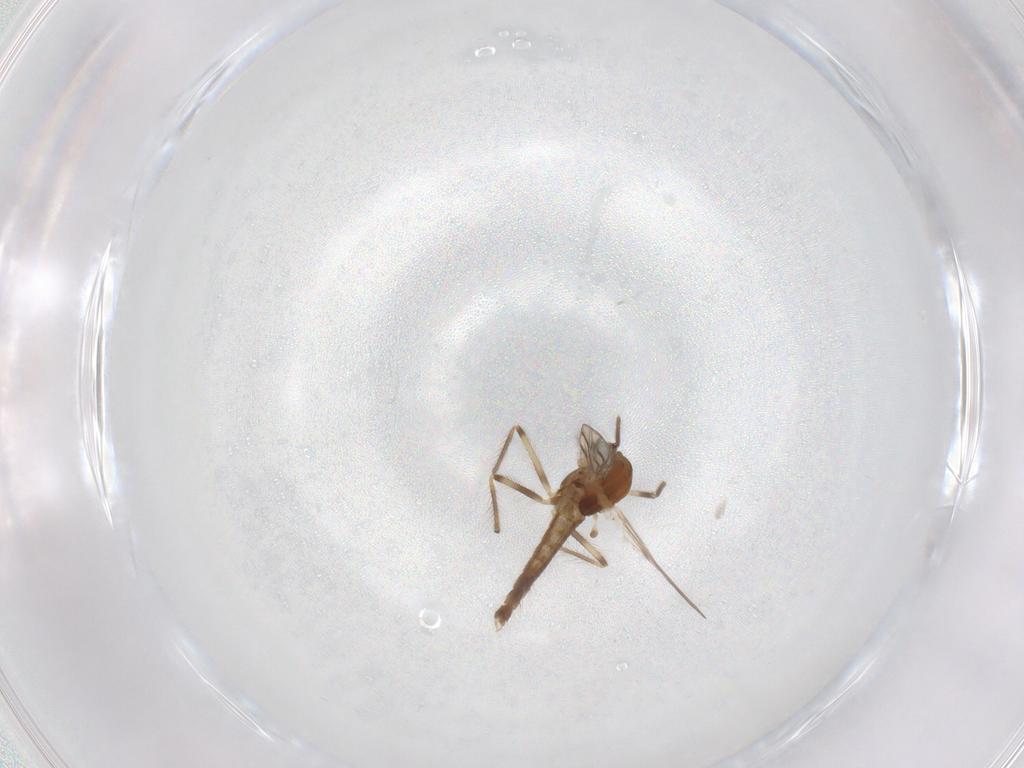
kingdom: Animalia
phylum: Arthropoda
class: Insecta
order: Diptera
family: Chironomidae
